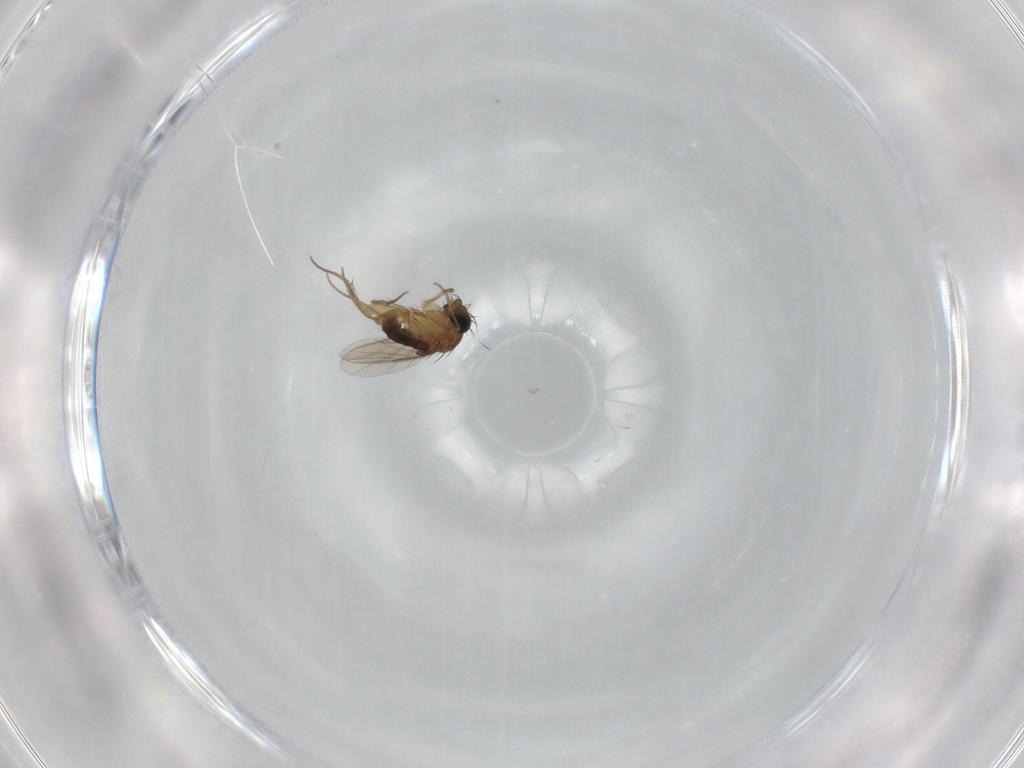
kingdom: Animalia
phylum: Arthropoda
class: Insecta
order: Diptera
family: Phoridae
